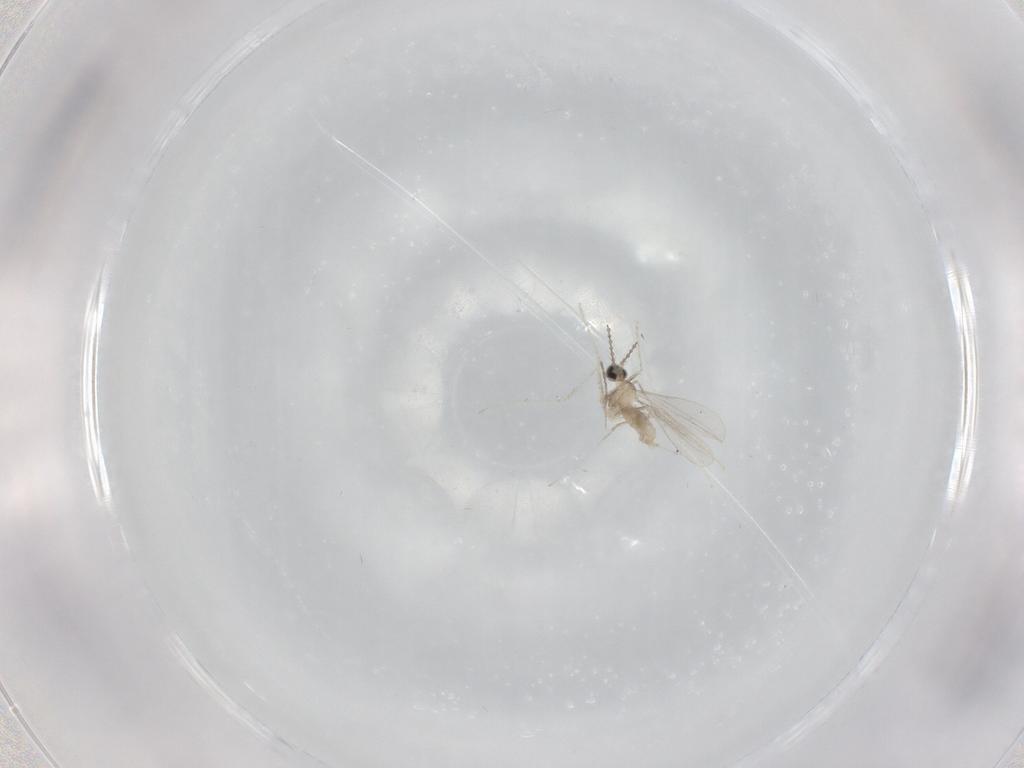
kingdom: Animalia
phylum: Arthropoda
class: Insecta
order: Diptera
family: Cecidomyiidae
